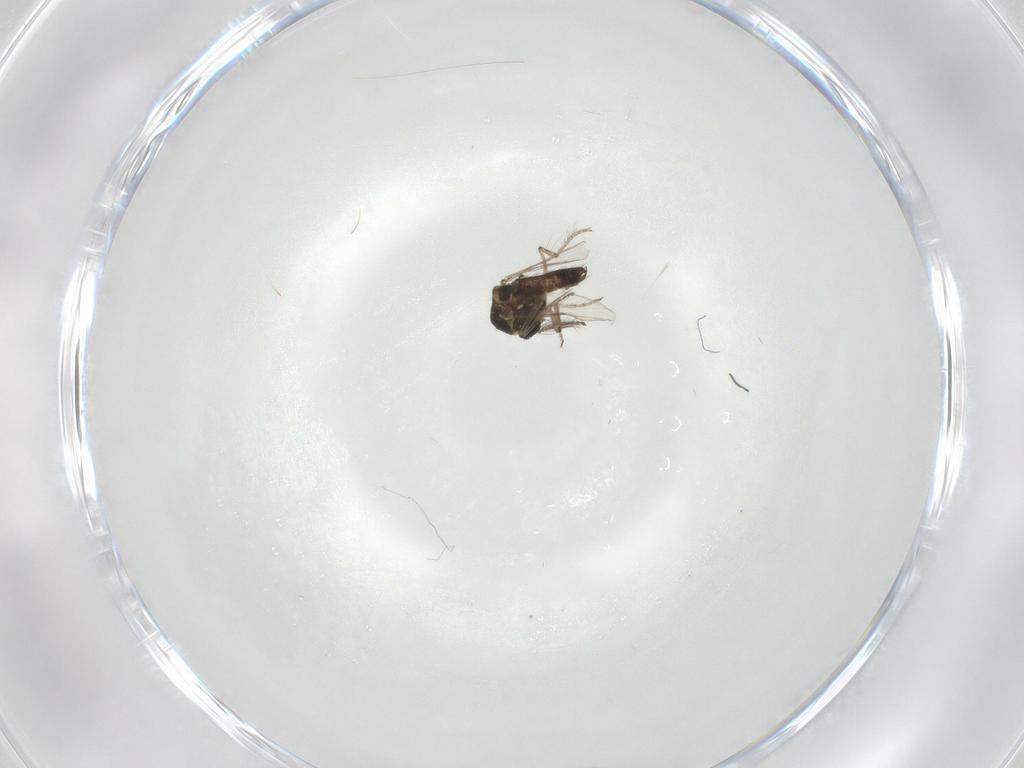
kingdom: Animalia
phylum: Arthropoda
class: Insecta
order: Diptera
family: Ceratopogonidae
